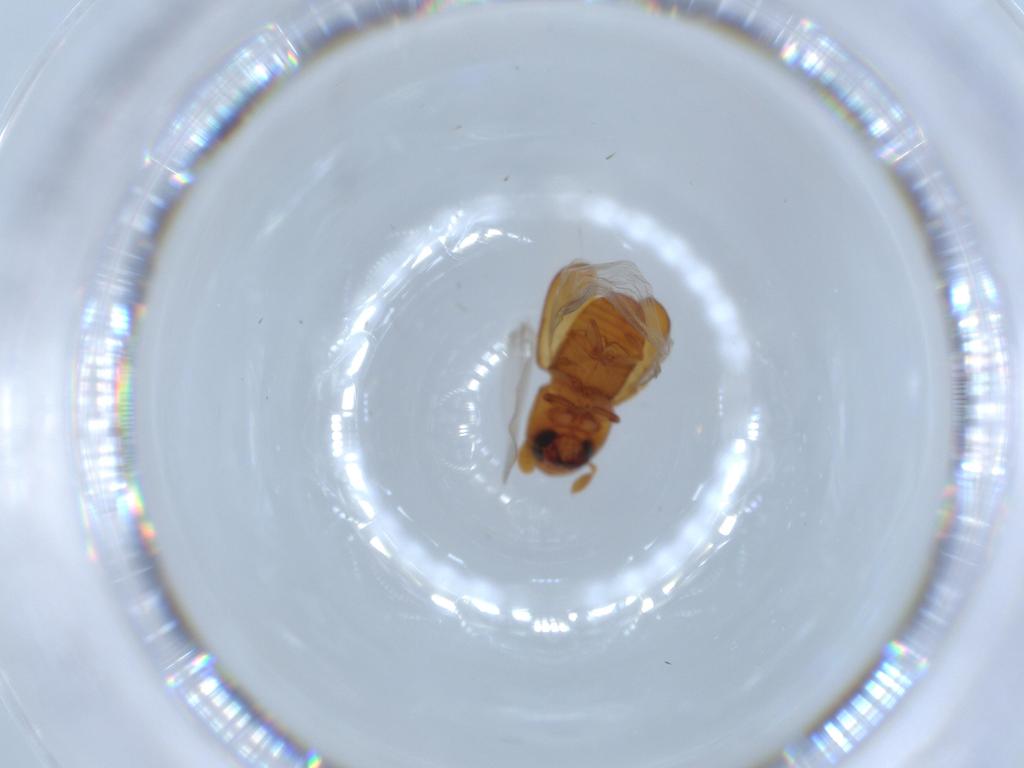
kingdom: Animalia
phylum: Arthropoda
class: Insecta
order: Coleoptera
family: Curculionidae
